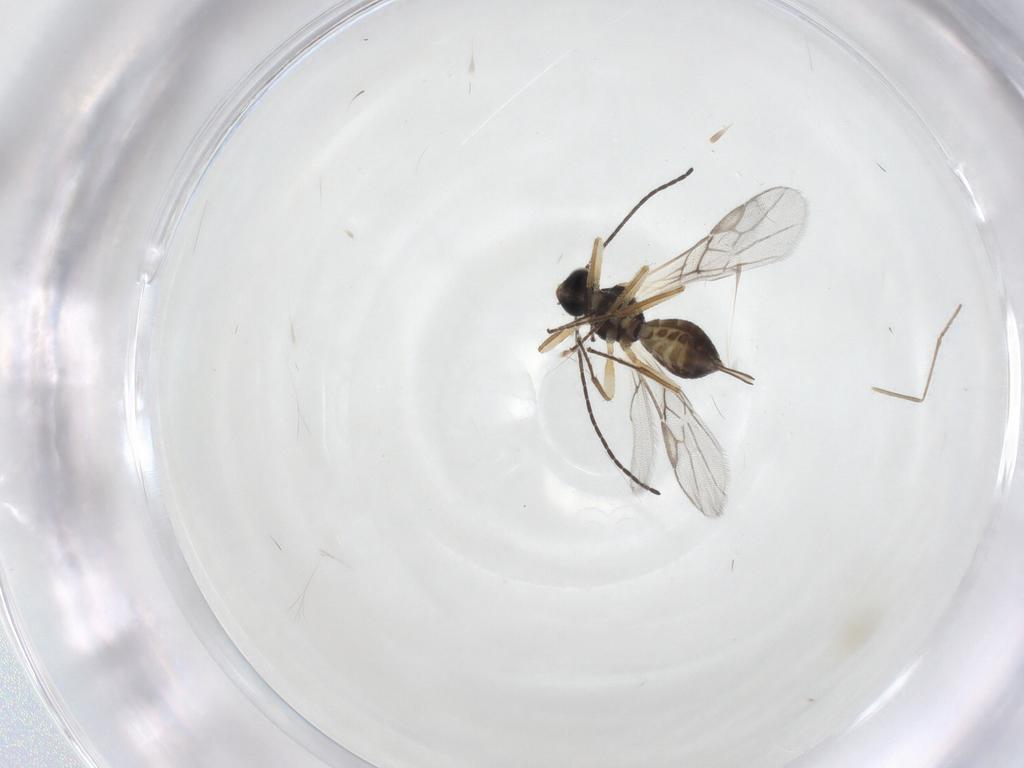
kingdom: Animalia
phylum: Arthropoda
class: Insecta
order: Hymenoptera
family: Braconidae
